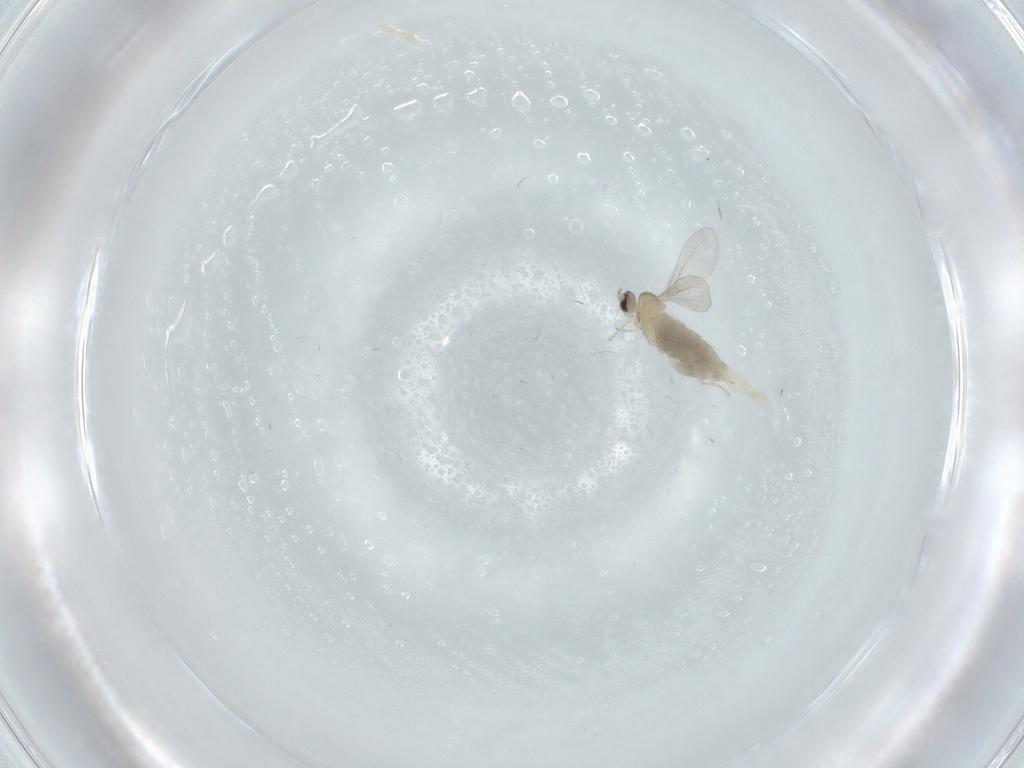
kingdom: Animalia
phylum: Arthropoda
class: Insecta
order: Diptera
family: Cecidomyiidae
